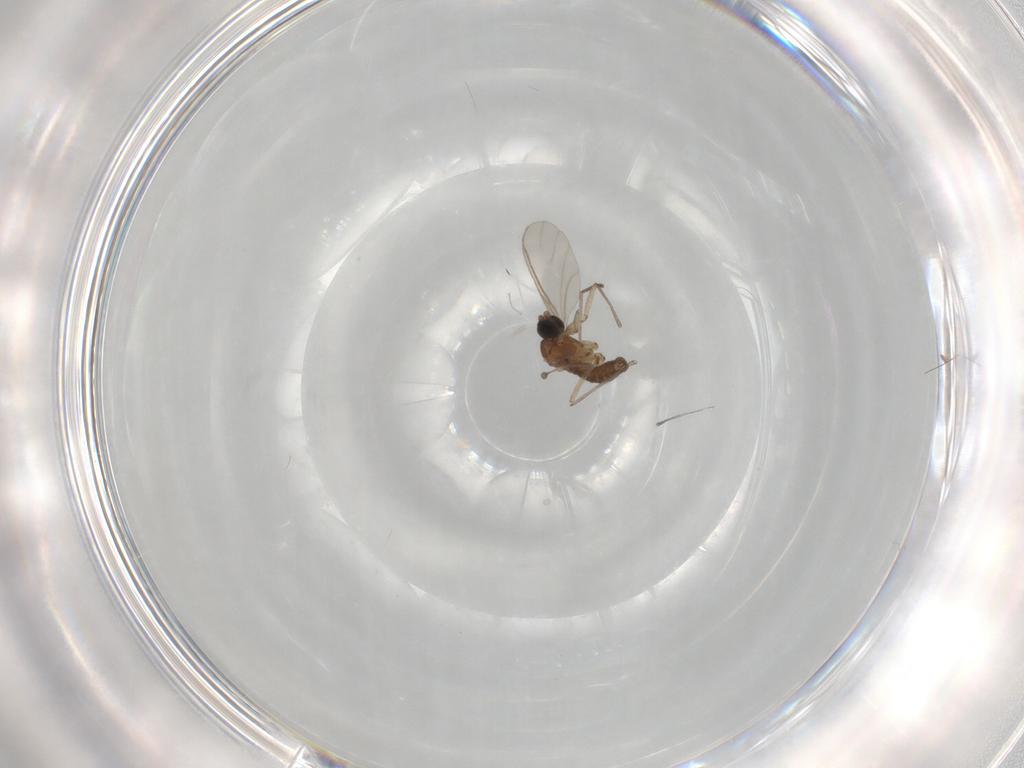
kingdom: Animalia
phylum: Arthropoda
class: Insecta
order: Diptera
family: Sciaridae
